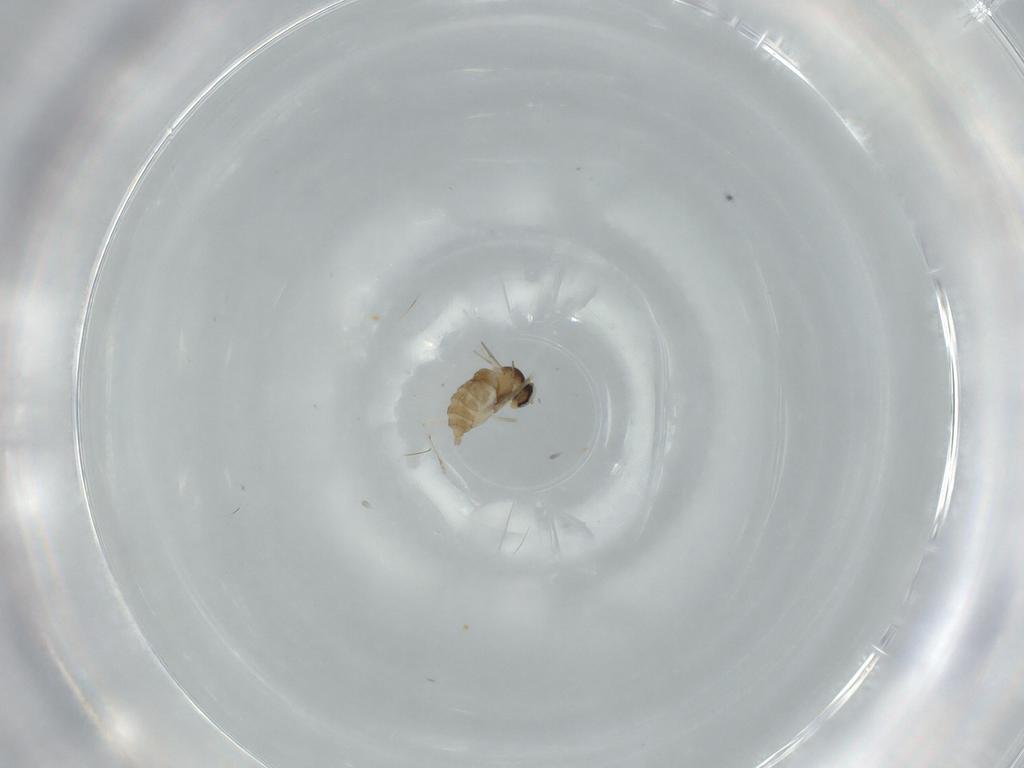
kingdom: Animalia
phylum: Arthropoda
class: Insecta
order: Diptera
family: Cecidomyiidae
